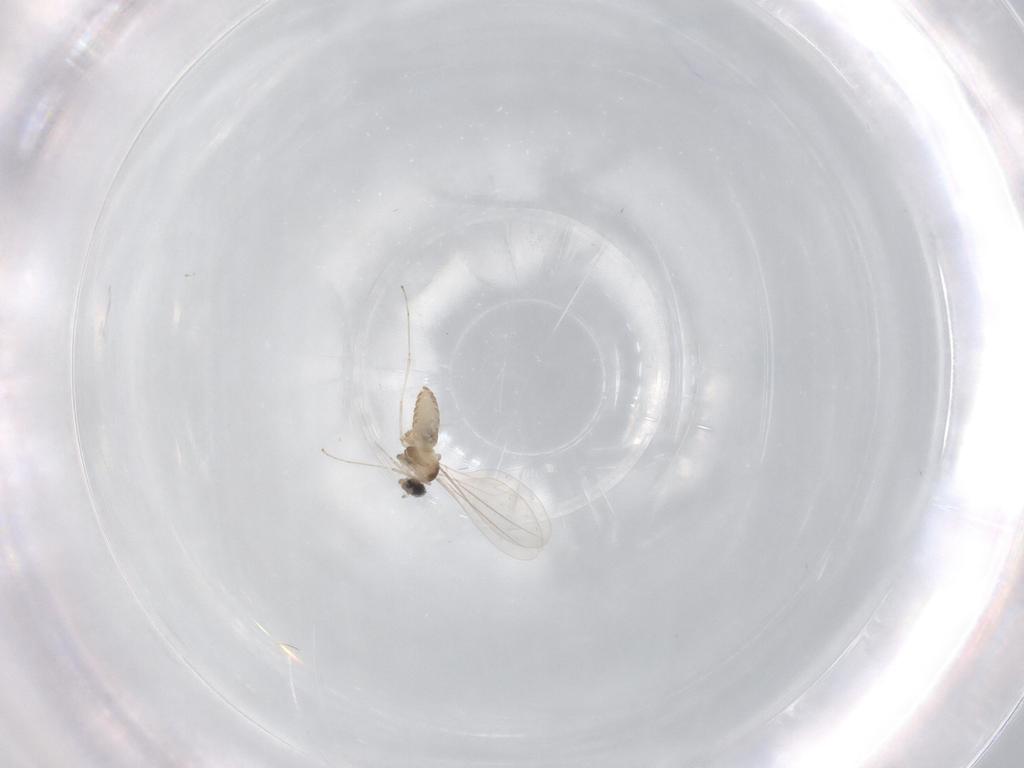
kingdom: Animalia
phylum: Arthropoda
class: Insecta
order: Diptera
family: Cecidomyiidae
